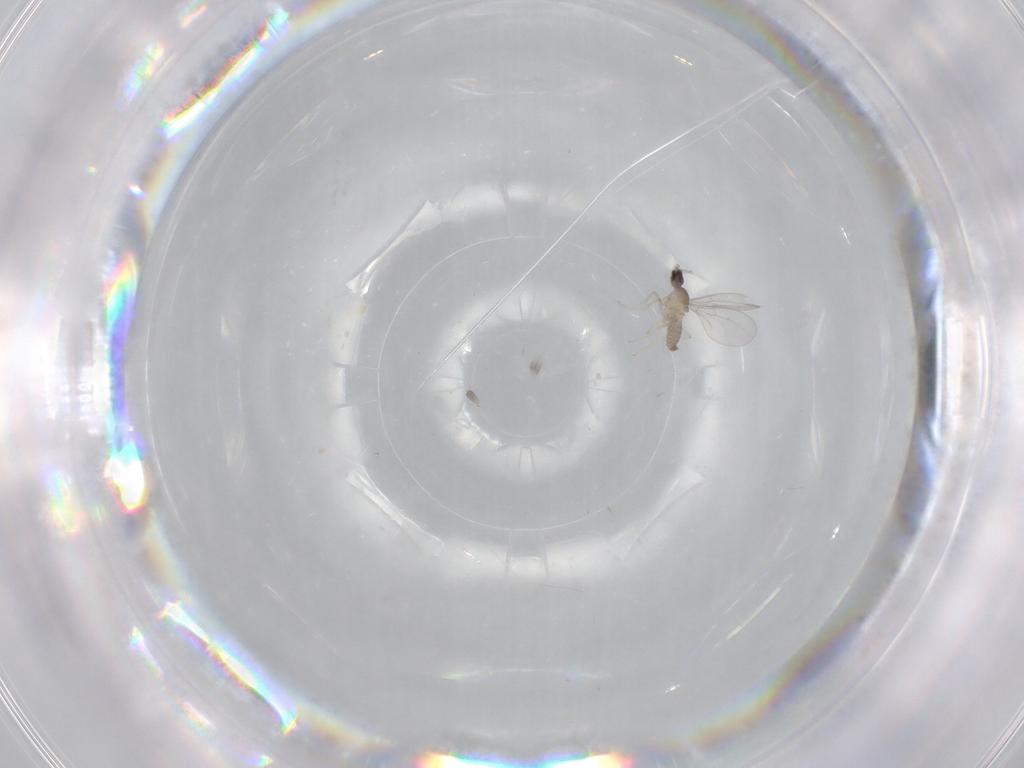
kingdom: Animalia
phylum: Arthropoda
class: Insecta
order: Diptera
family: Cecidomyiidae
